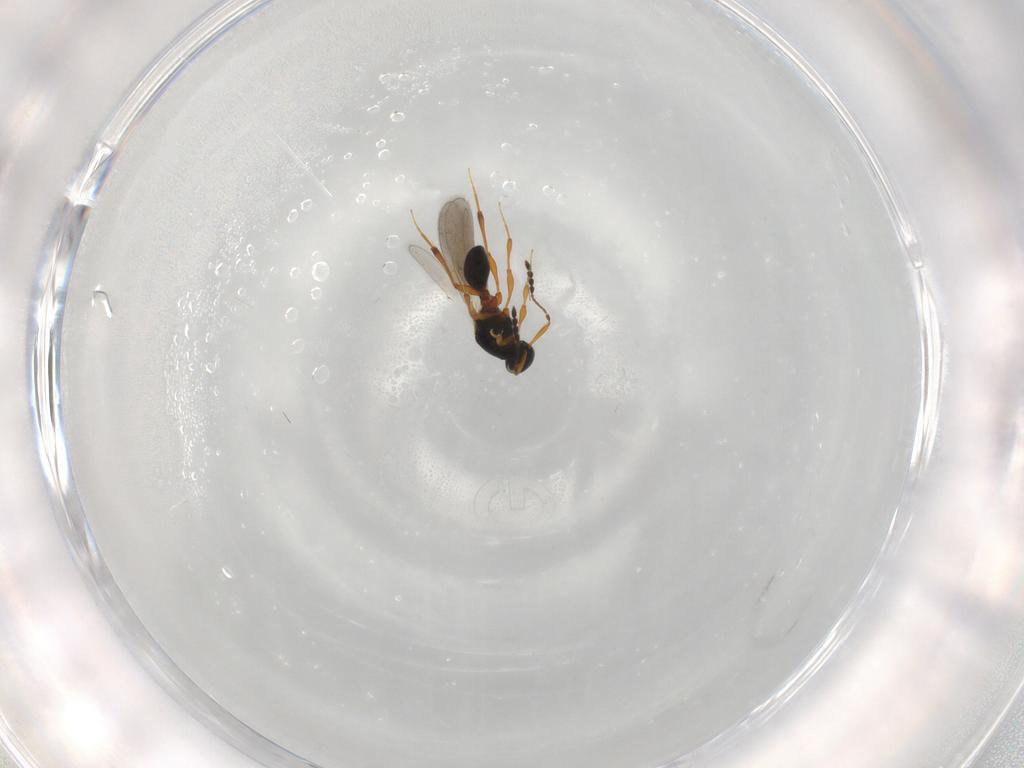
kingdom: Animalia
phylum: Arthropoda
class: Insecta
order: Hymenoptera
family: Platygastridae
